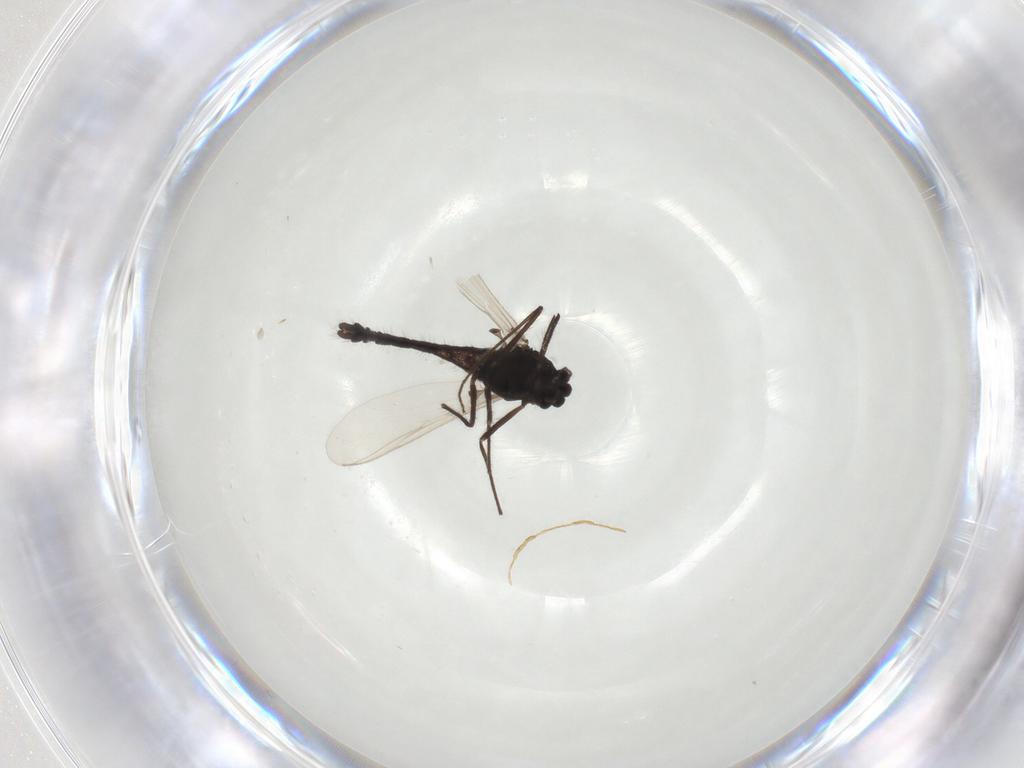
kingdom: Animalia
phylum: Arthropoda
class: Insecta
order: Diptera
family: Chironomidae
